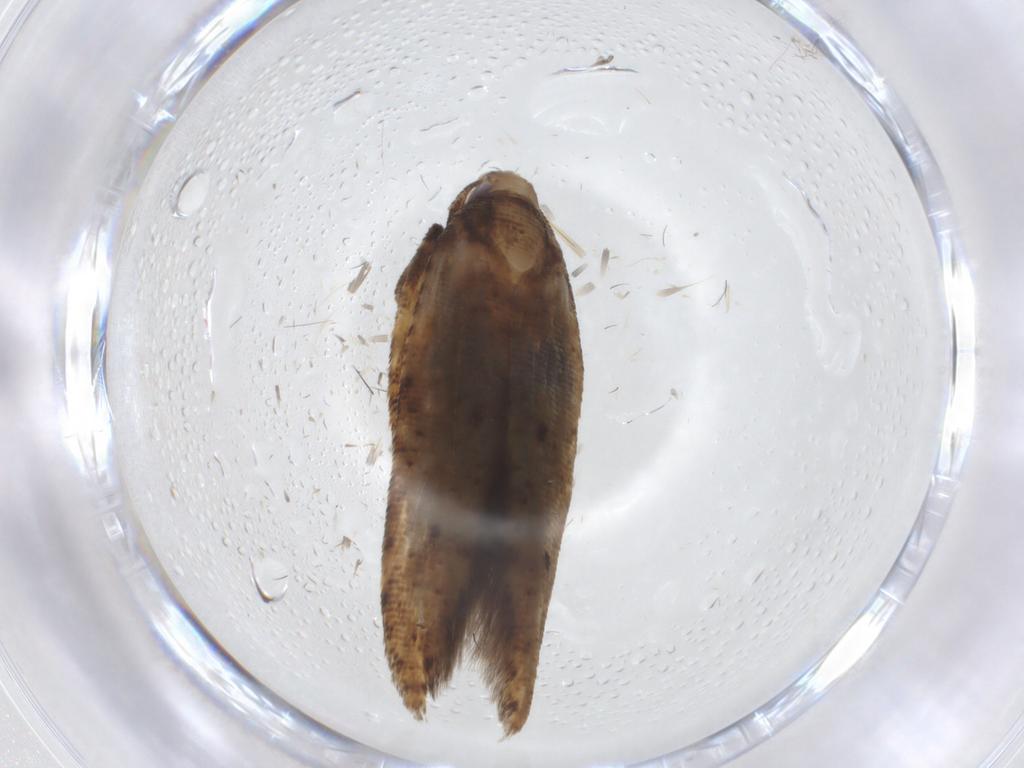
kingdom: Animalia
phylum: Arthropoda
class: Insecta
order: Lepidoptera
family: Gelechiidae
